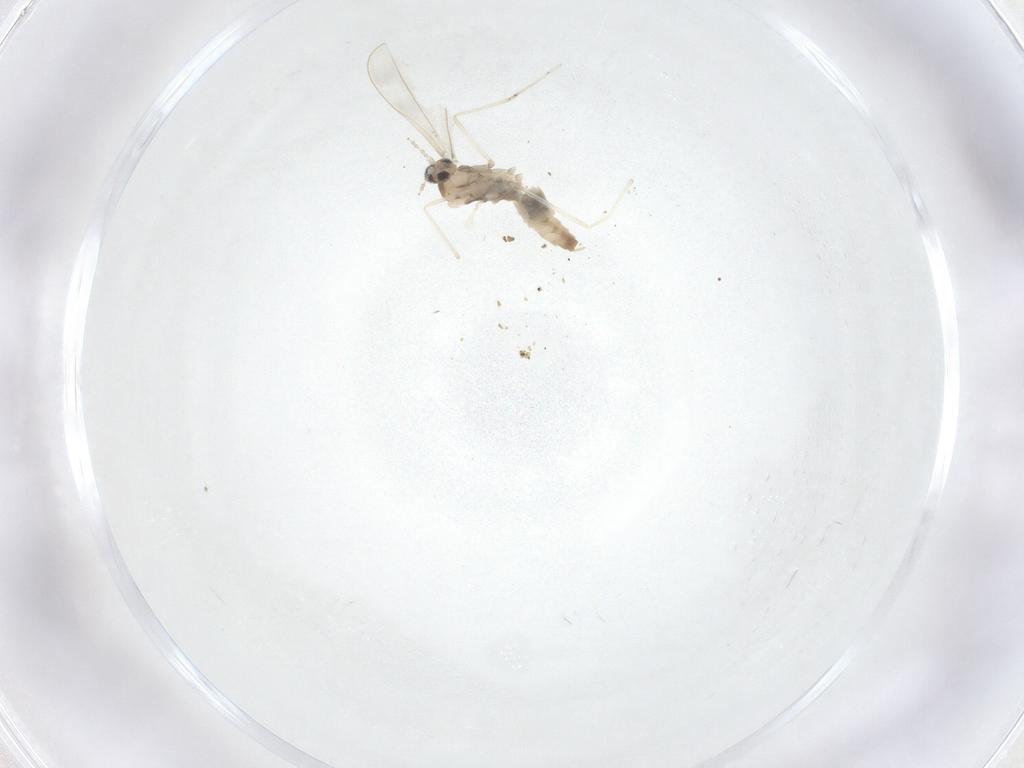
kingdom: Animalia
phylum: Arthropoda
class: Insecta
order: Diptera
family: Cecidomyiidae
